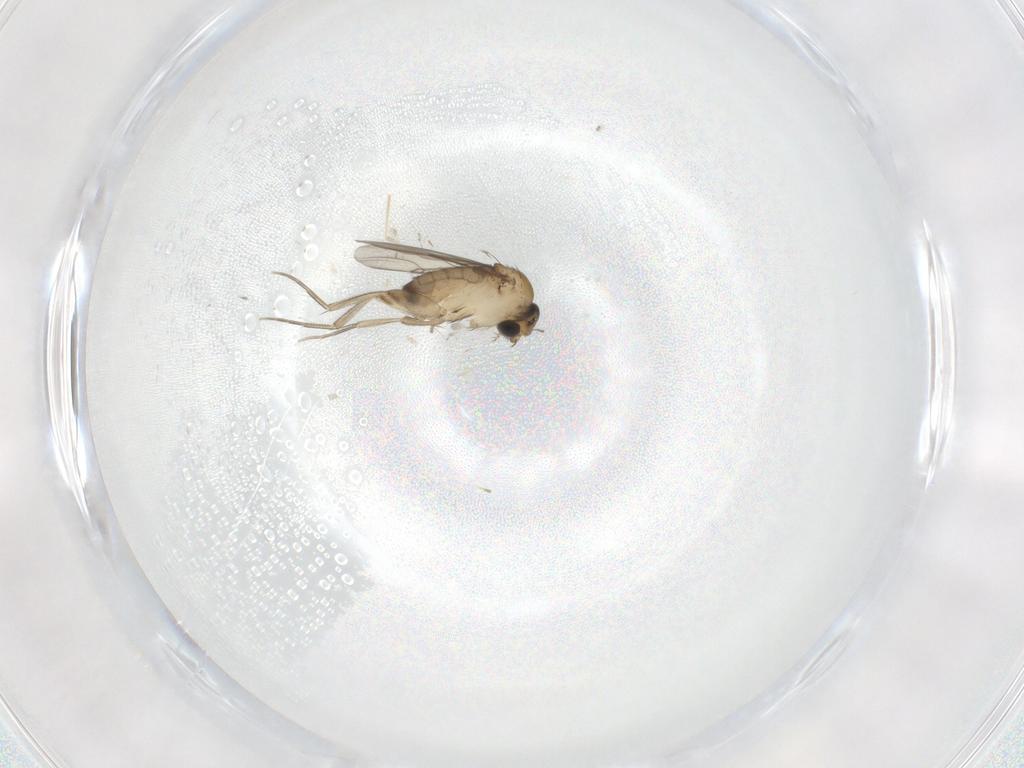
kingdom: Animalia
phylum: Arthropoda
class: Insecta
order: Diptera
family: Phoridae
